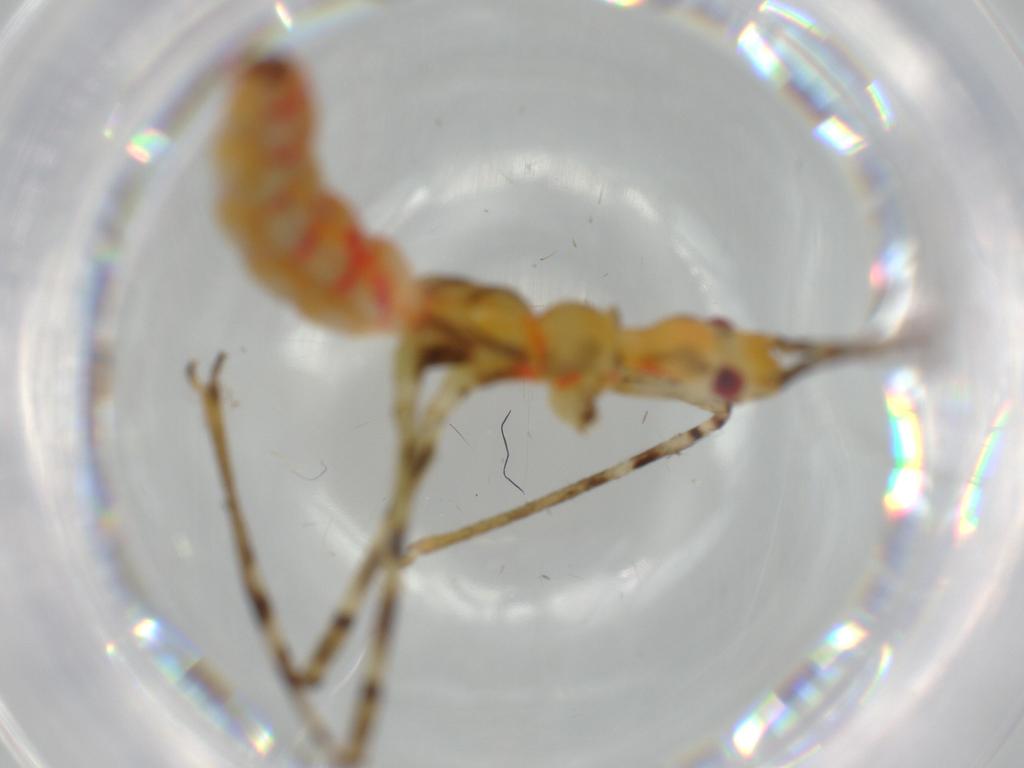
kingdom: Animalia
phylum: Arthropoda
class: Insecta
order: Hemiptera
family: Reduviidae
